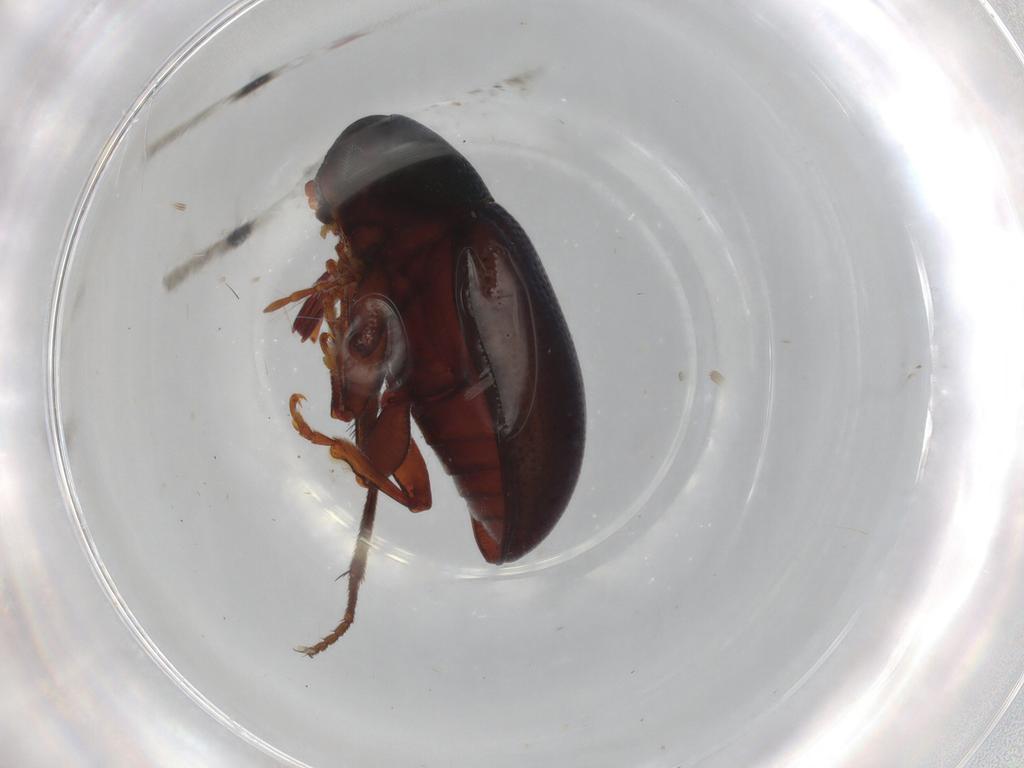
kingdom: Animalia
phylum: Arthropoda
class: Insecta
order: Coleoptera
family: Chrysomelidae
